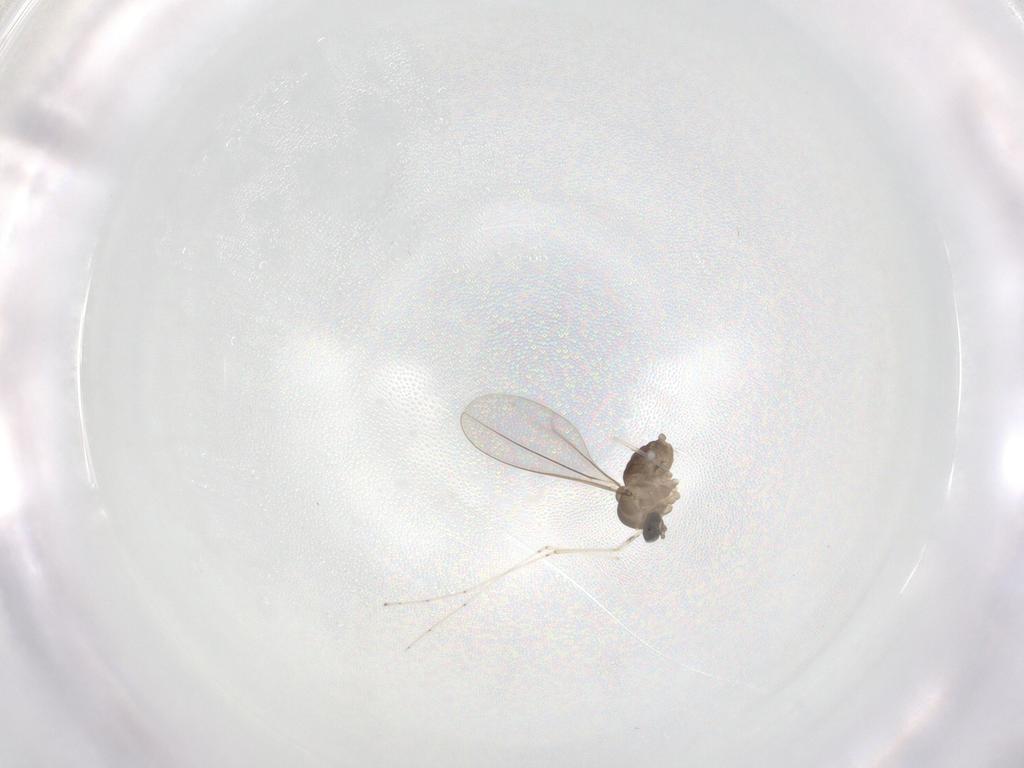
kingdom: Animalia
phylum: Arthropoda
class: Insecta
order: Diptera
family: Cecidomyiidae
